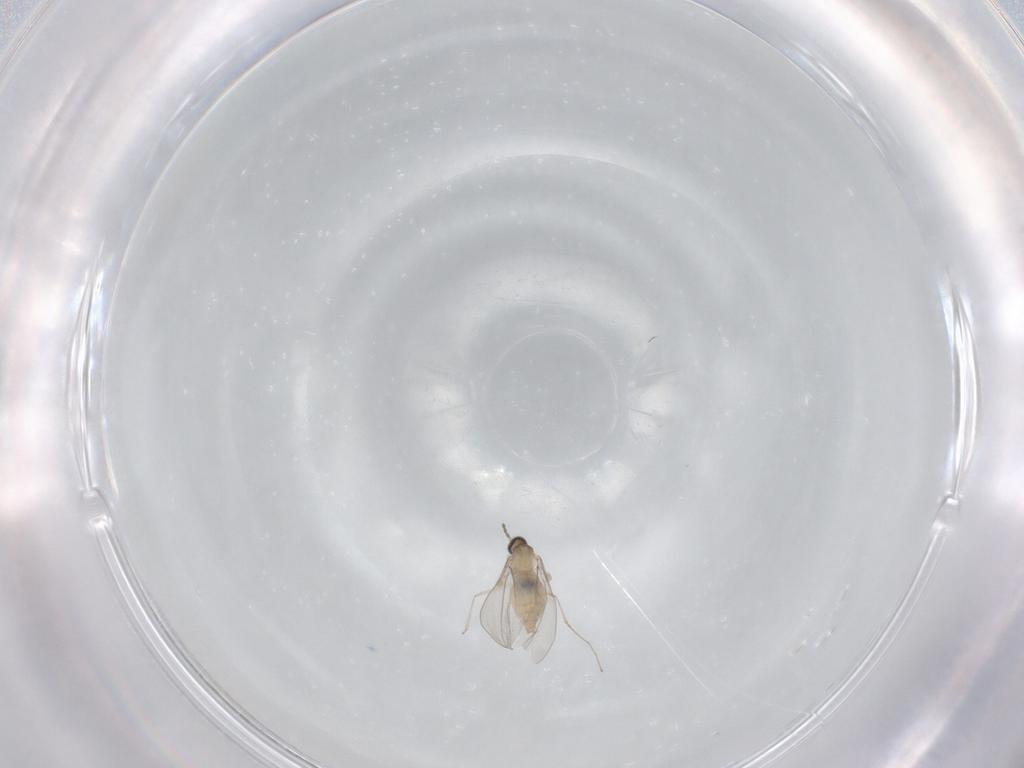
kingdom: Animalia
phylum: Arthropoda
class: Insecta
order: Diptera
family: Cecidomyiidae
